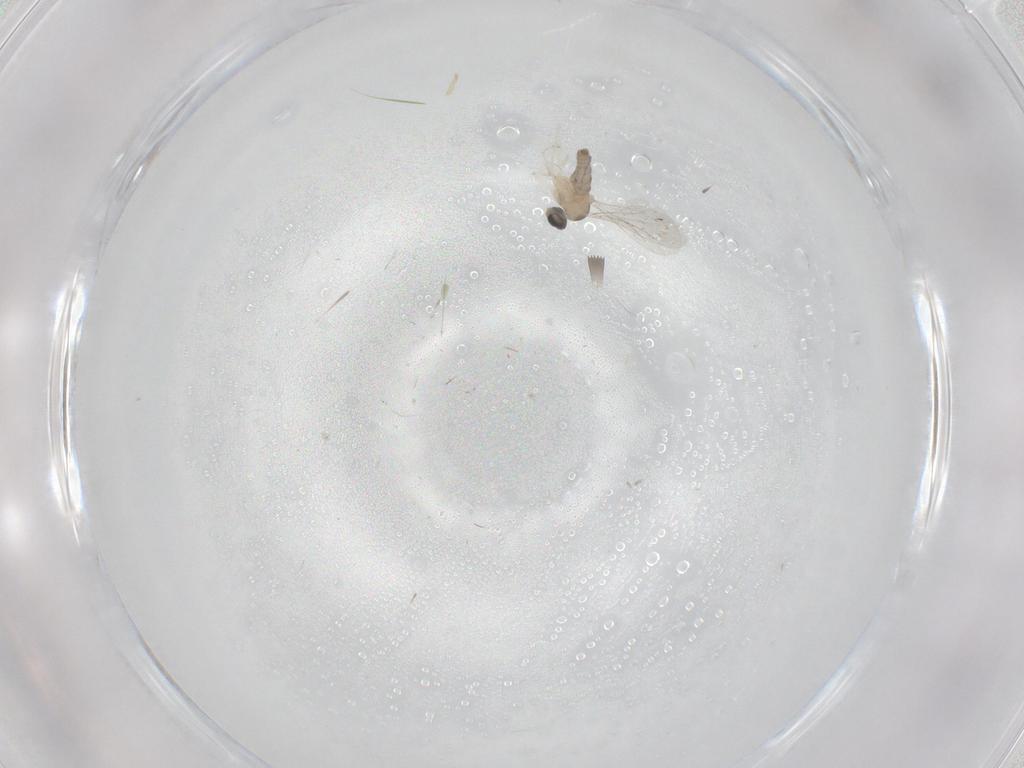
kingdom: Animalia
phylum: Arthropoda
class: Insecta
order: Diptera
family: Cecidomyiidae
